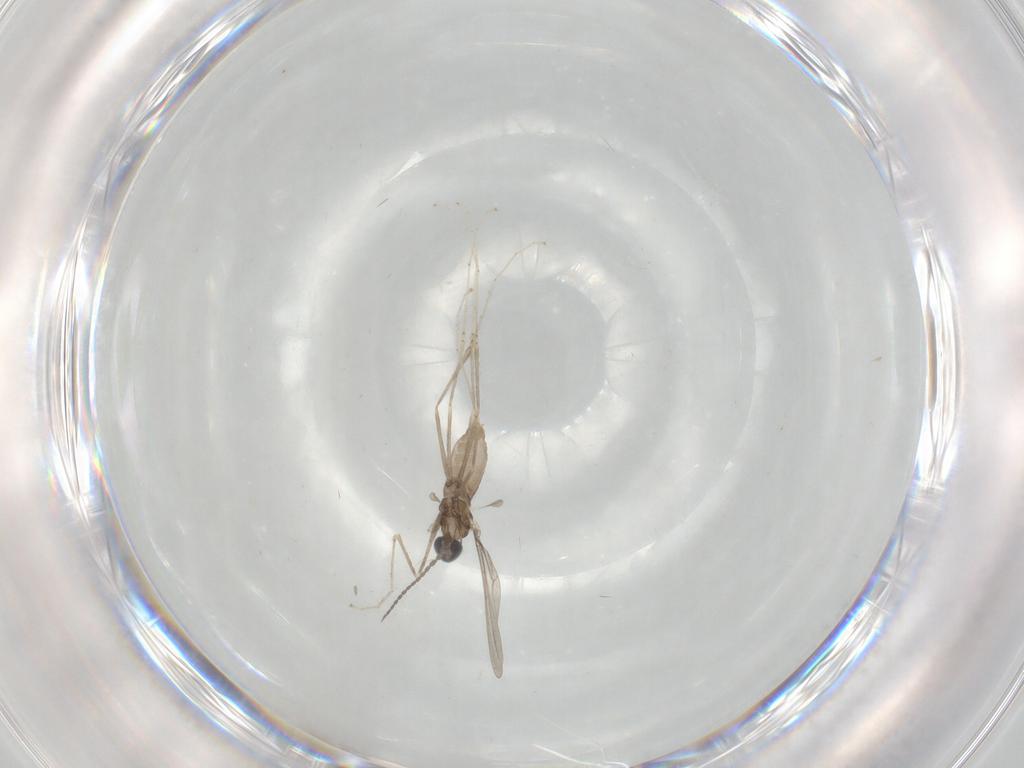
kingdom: Animalia
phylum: Arthropoda
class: Insecta
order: Diptera
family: Cecidomyiidae
